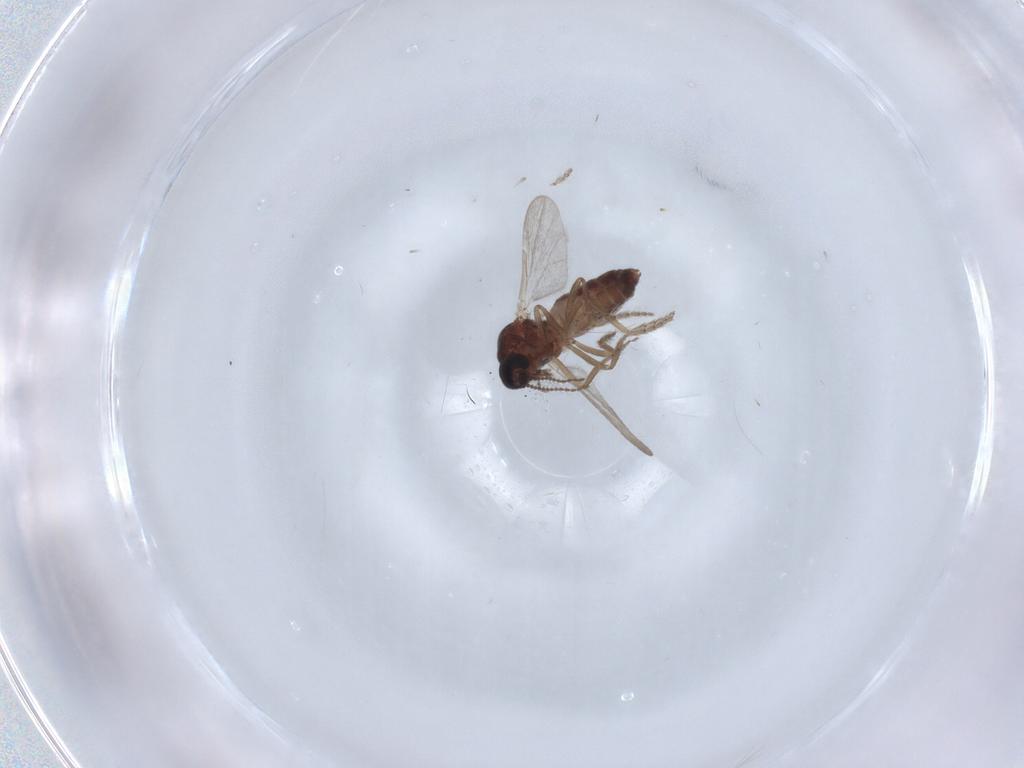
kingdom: Animalia
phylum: Arthropoda
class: Insecta
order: Diptera
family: Ceratopogonidae
